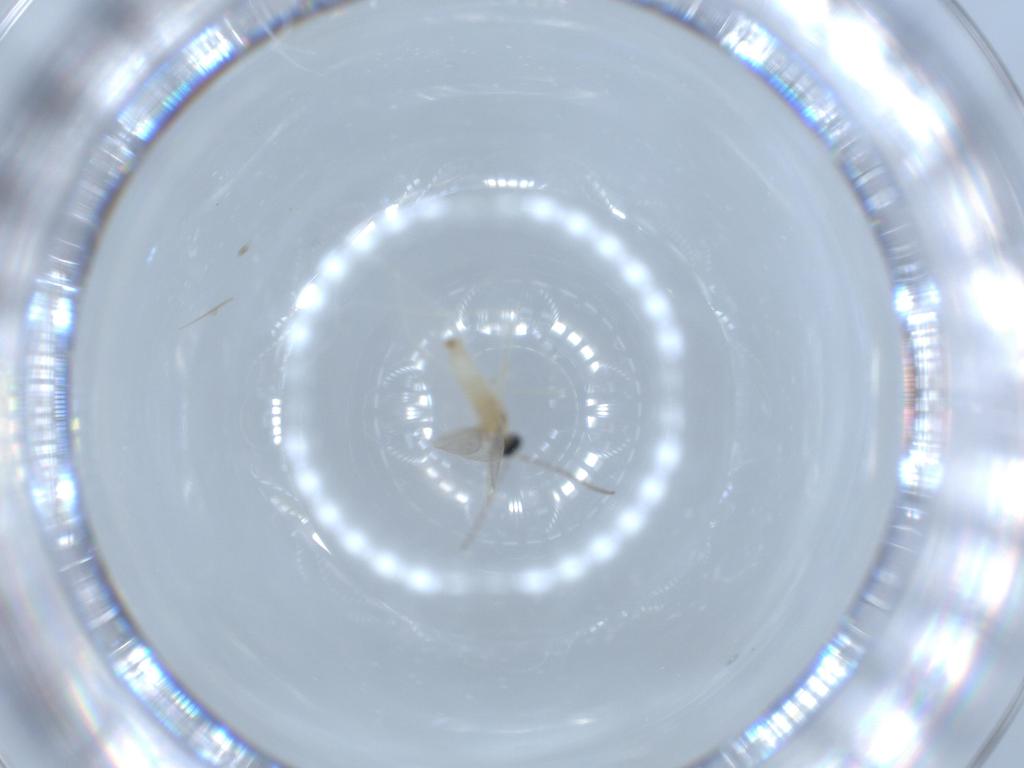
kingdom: Animalia
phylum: Arthropoda
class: Insecta
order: Diptera
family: Cecidomyiidae
